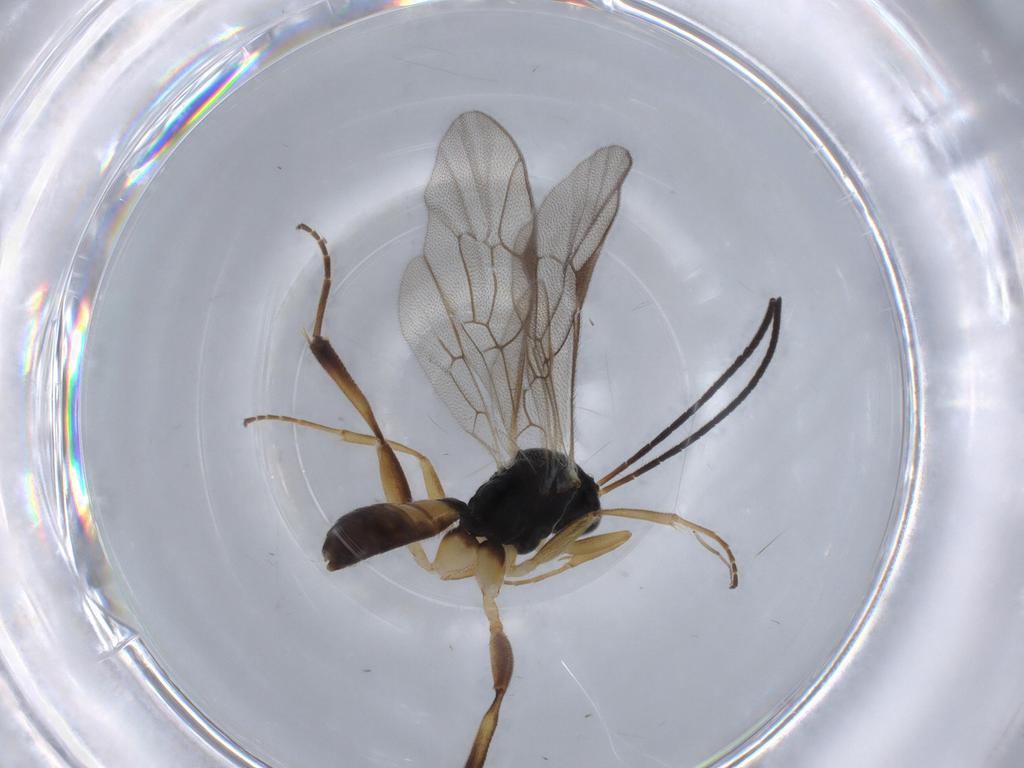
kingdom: Animalia
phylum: Arthropoda
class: Insecta
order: Hymenoptera
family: Ichneumonidae
